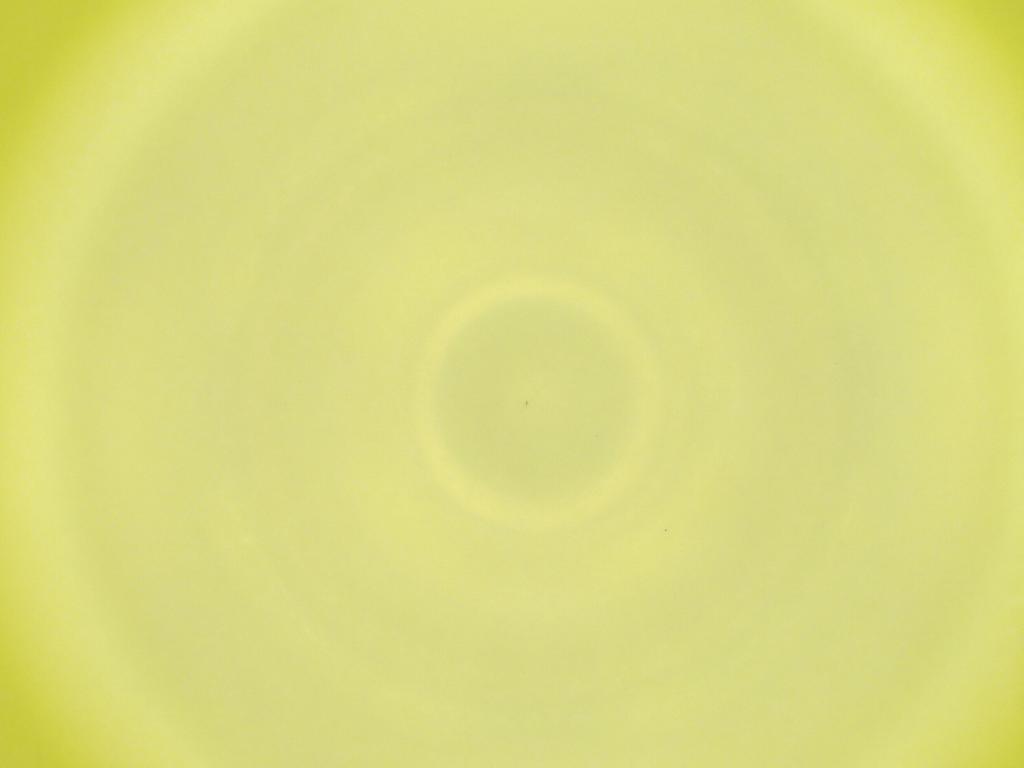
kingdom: Animalia
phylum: Arthropoda
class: Insecta
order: Diptera
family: Cecidomyiidae
